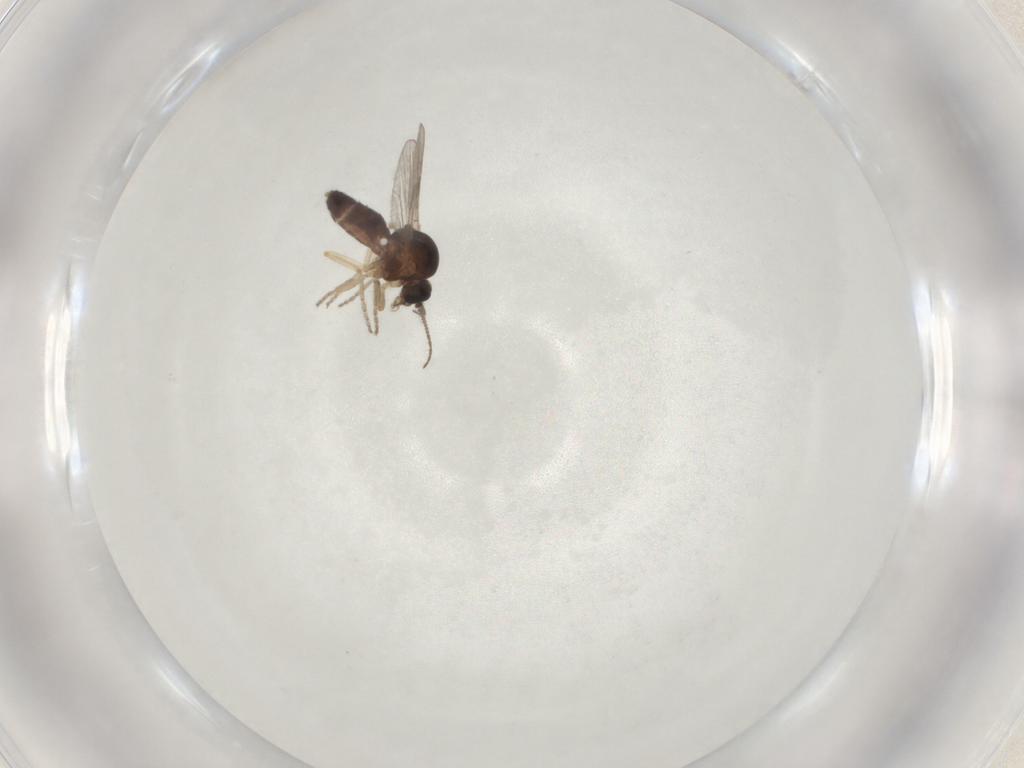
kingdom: Animalia
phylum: Arthropoda
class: Insecta
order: Diptera
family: Ceratopogonidae
